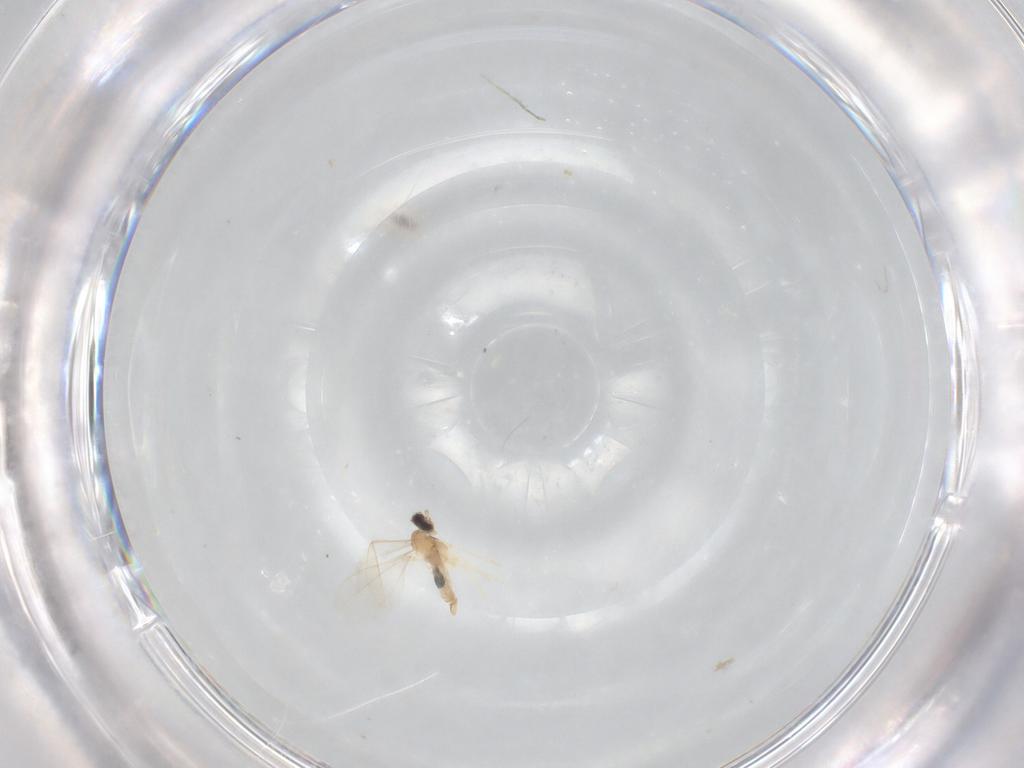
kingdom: Animalia
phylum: Arthropoda
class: Insecta
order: Diptera
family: Cecidomyiidae
